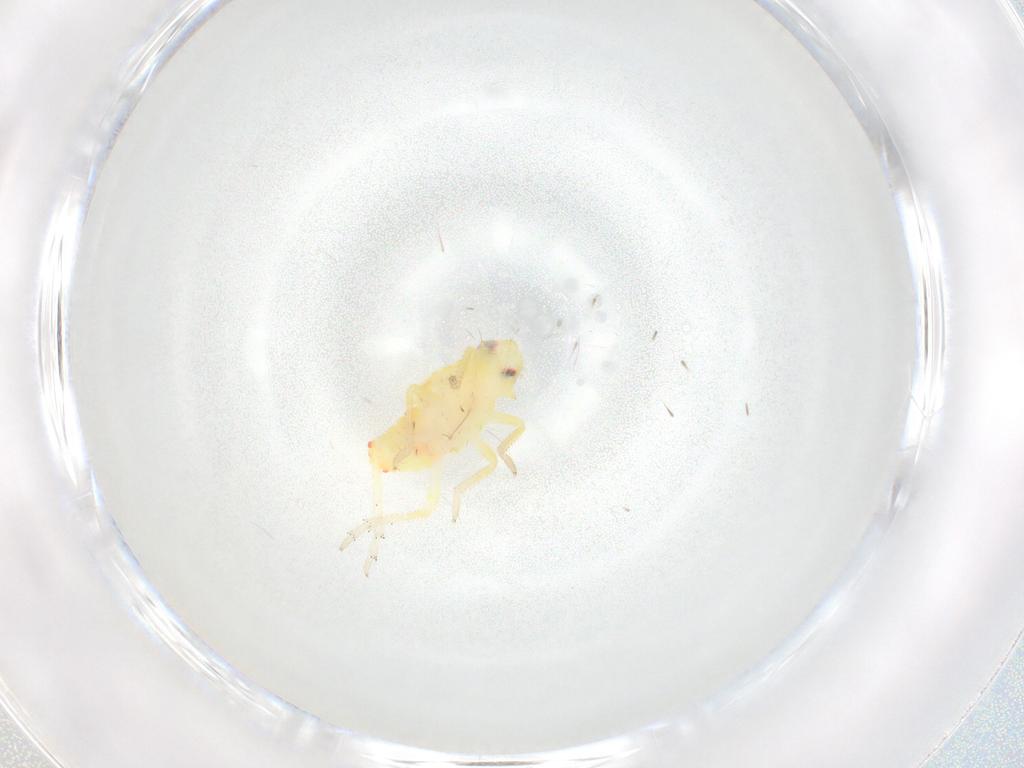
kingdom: Animalia
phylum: Arthropoda
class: Insecta
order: Hemiptera
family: Tropiduchidae
